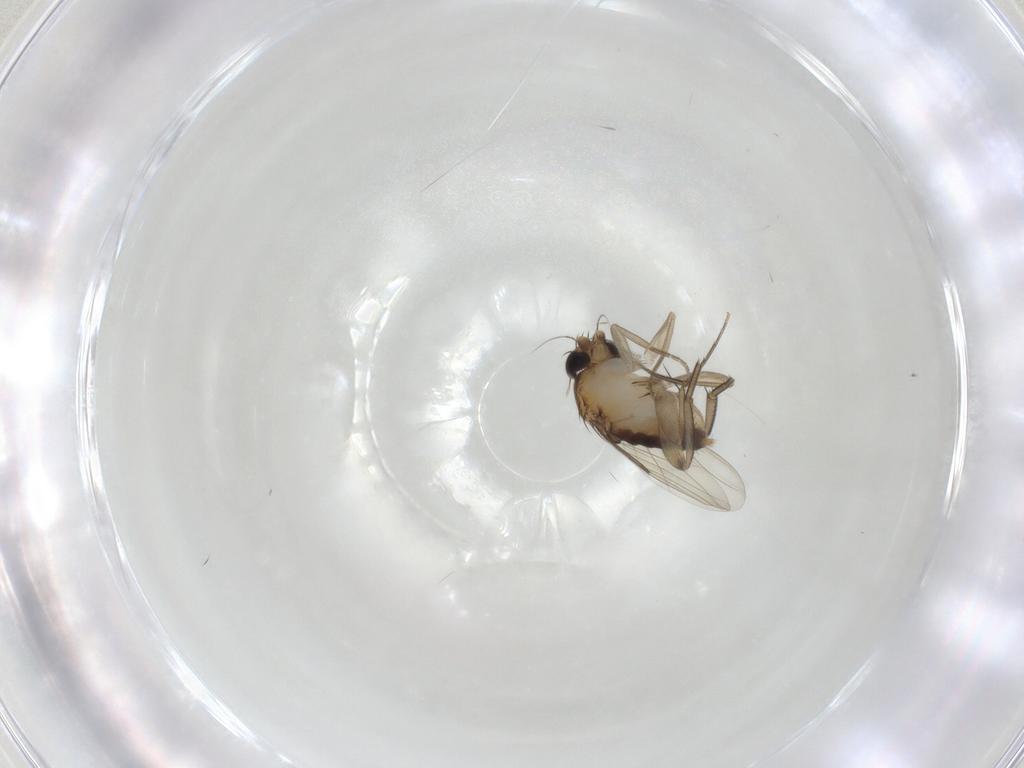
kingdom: Animalia
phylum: Arthropoda
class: Insecta
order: Diptera
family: Phoridae
